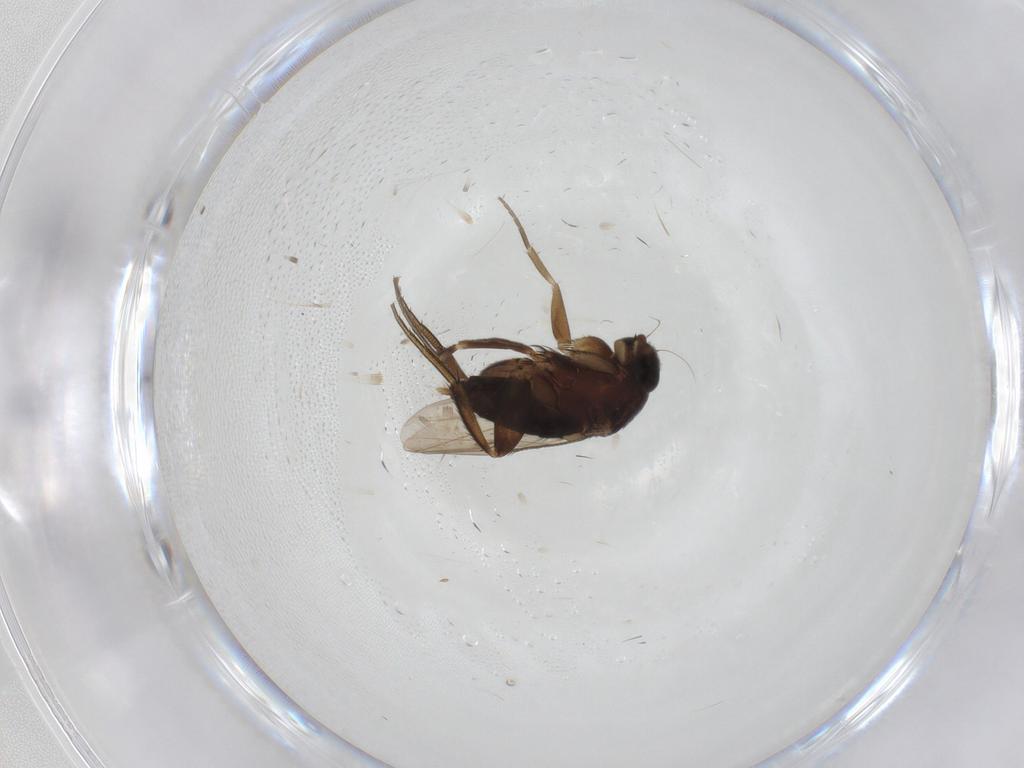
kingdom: Animalia
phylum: Arthropoda
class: Insecta
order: Diptera
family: Phoridae
